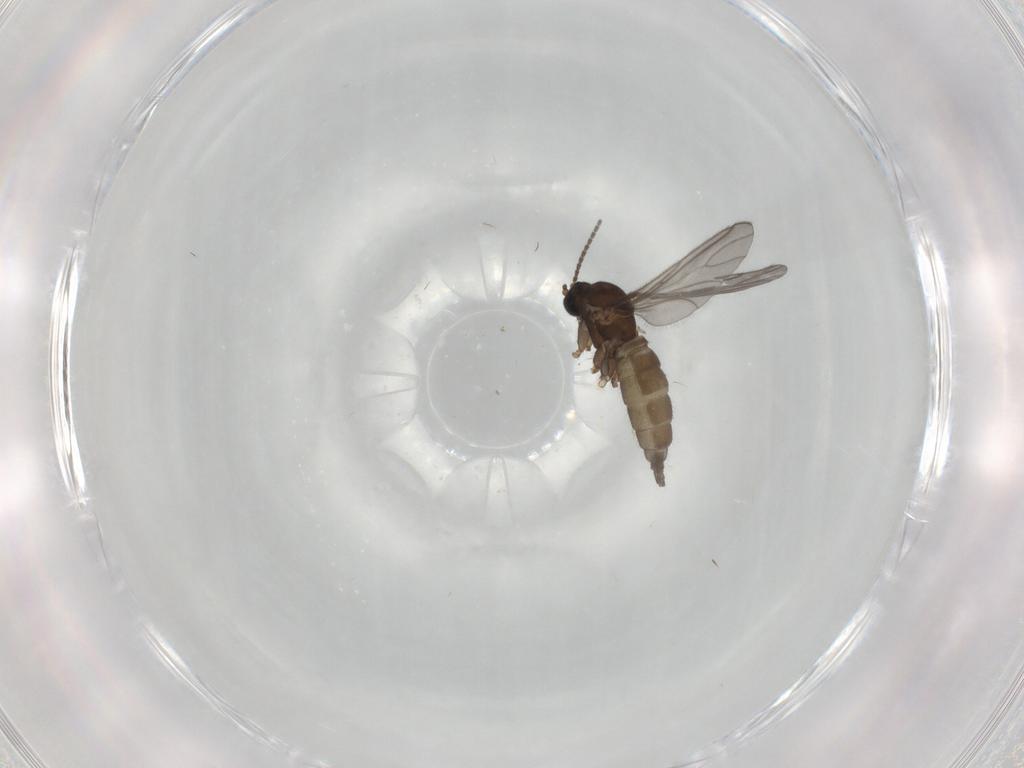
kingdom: Animalia
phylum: Arthropoda
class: Insecta
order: Diptera
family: Sciaridae
